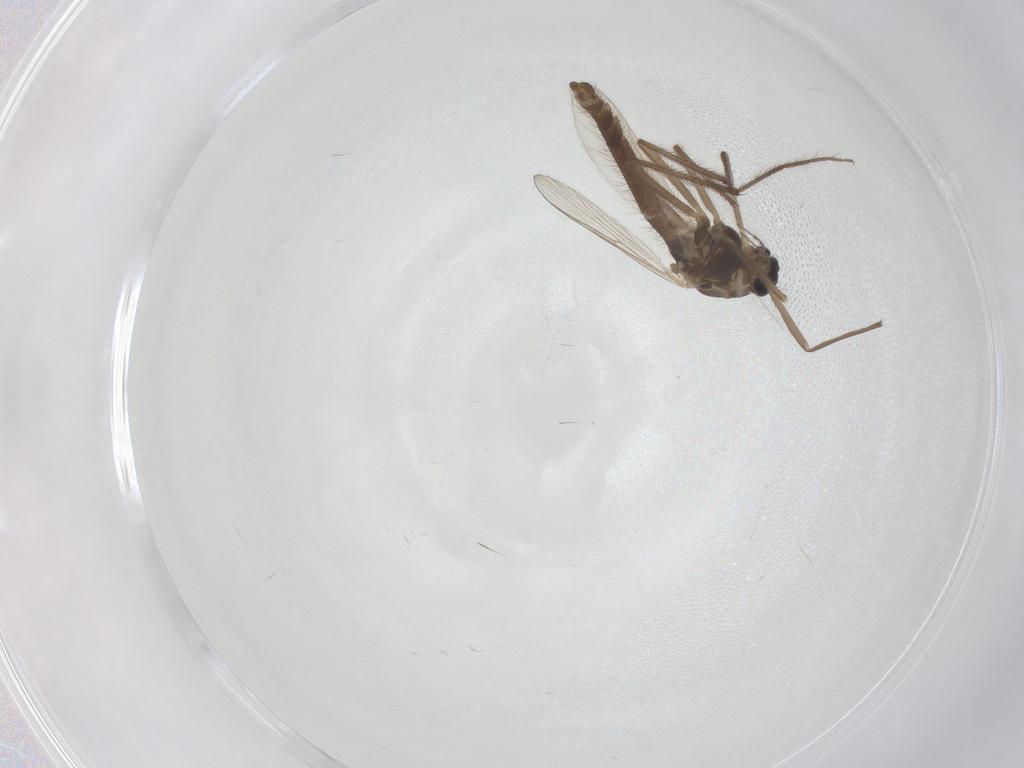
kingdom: Animalia
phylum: Arthropoda
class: Insecta
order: Diptera
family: Chironomidae
